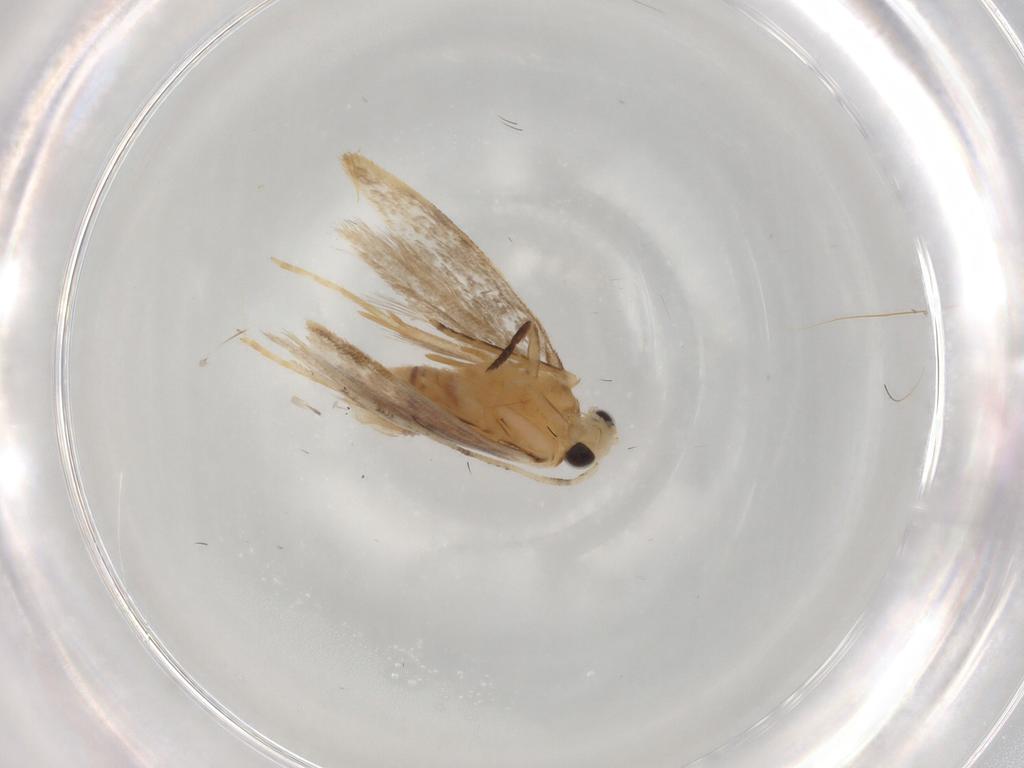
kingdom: Animalia
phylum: Arthropoda
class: Insecta
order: Lepidoptera
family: Dryadaulidae
